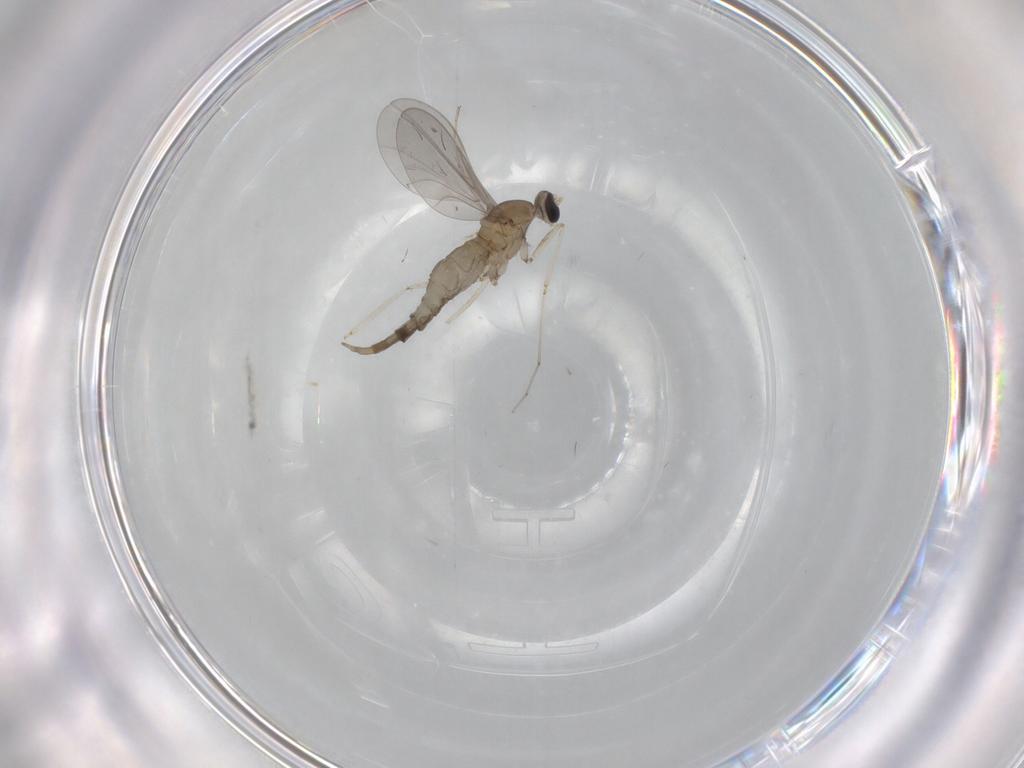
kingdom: Animalia
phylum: Arthropoda
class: Insecta
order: Diptera
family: Cecidomyiidae
